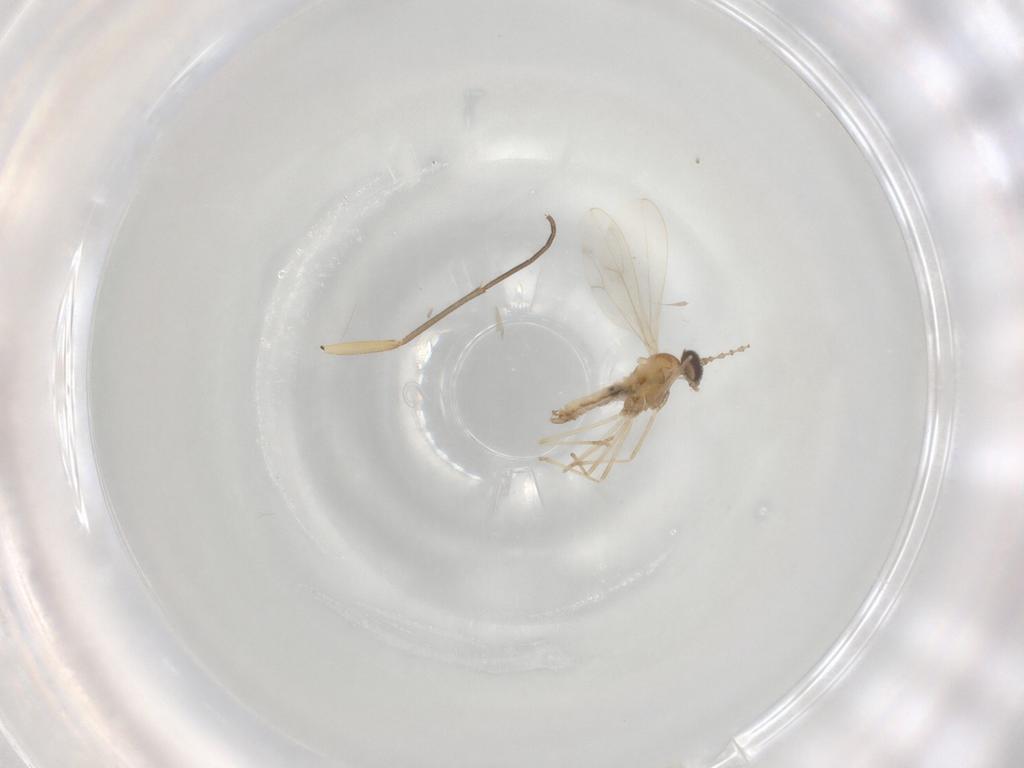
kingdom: Animalia
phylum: Arthropoda
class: Insecta
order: Diptera
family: Cecidomyiidae
